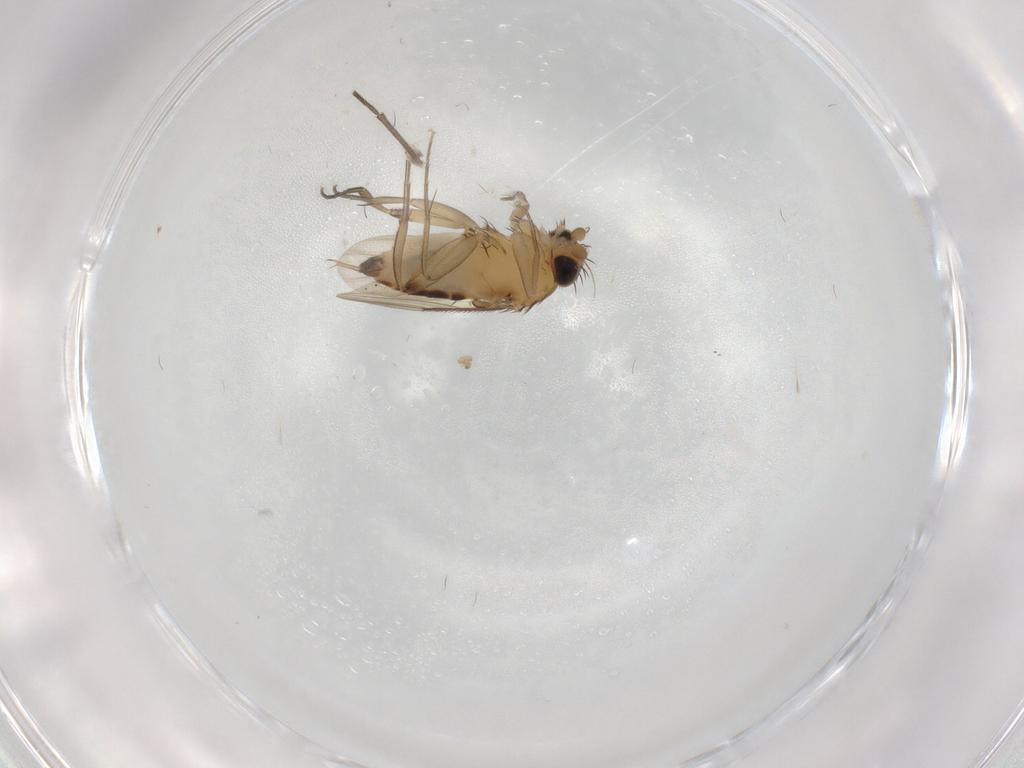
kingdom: Animalia
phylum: Arthropoda
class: Insecta
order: Diptera
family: Phoridae
